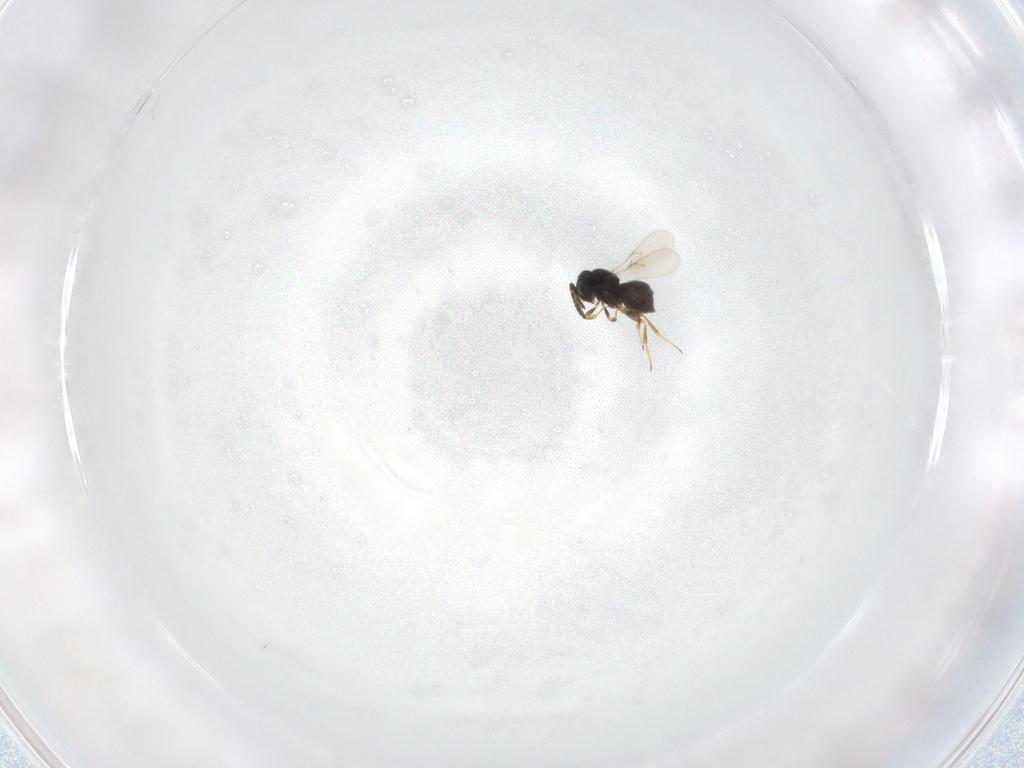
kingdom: Animalia
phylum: Arthropoda
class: Insecta
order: Hymenoptera
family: Scelionidae
